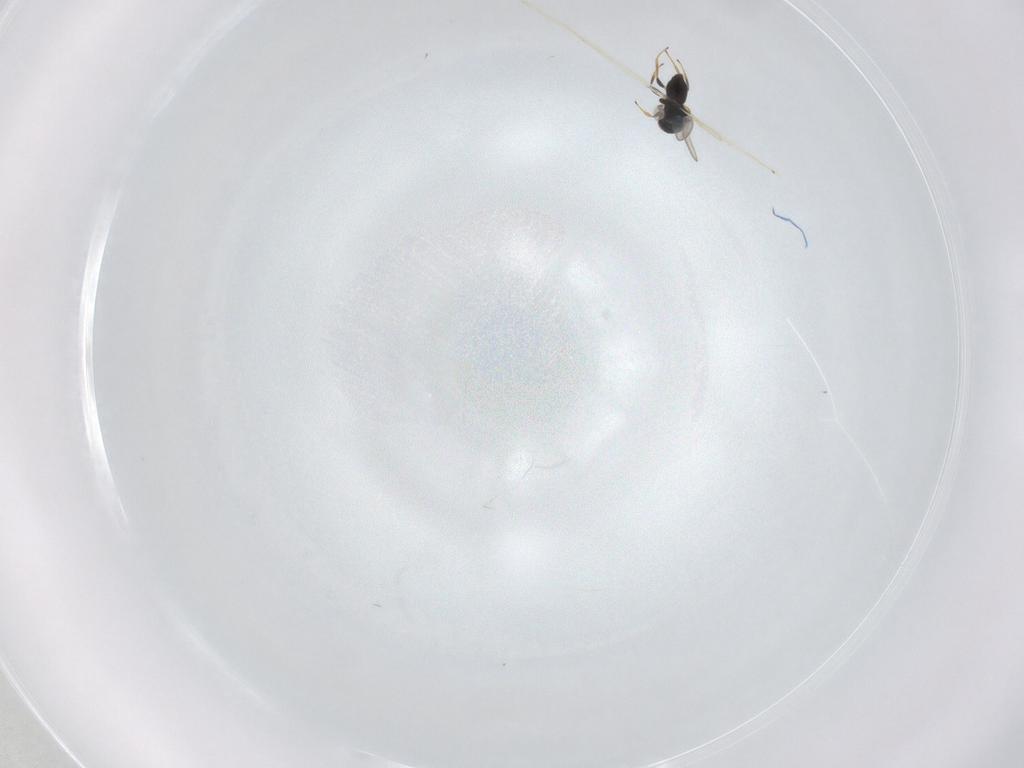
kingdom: Animalia
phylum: Arthropoda
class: Insecta
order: Hymenoptera
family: Platygastridae
